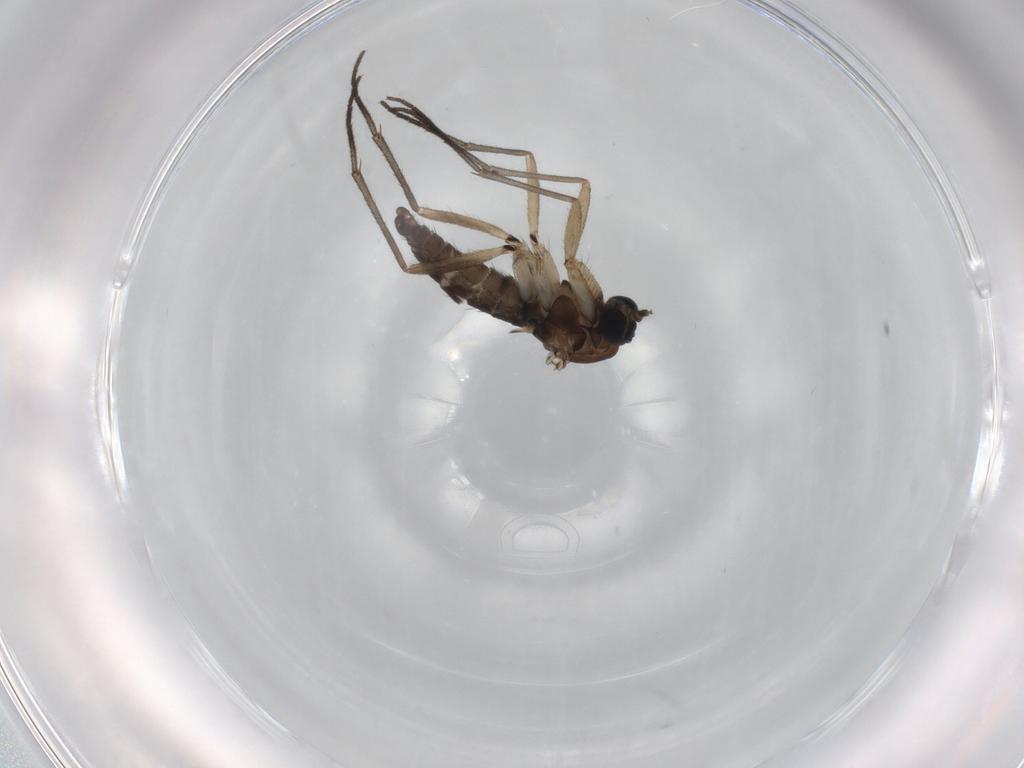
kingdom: Animalia
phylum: Arthropoda
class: Insecta
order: Diptera
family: Sciaridae
